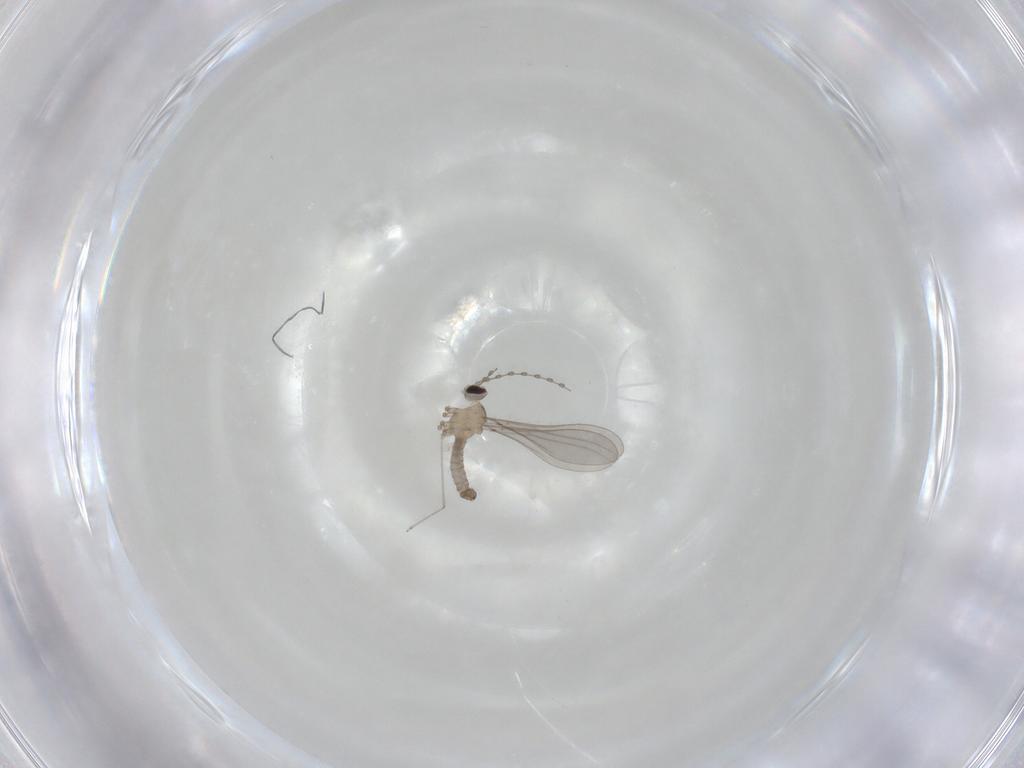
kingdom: Animalia
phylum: Arthropoda
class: Insecta
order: Diptera
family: Cecidomyiidae
